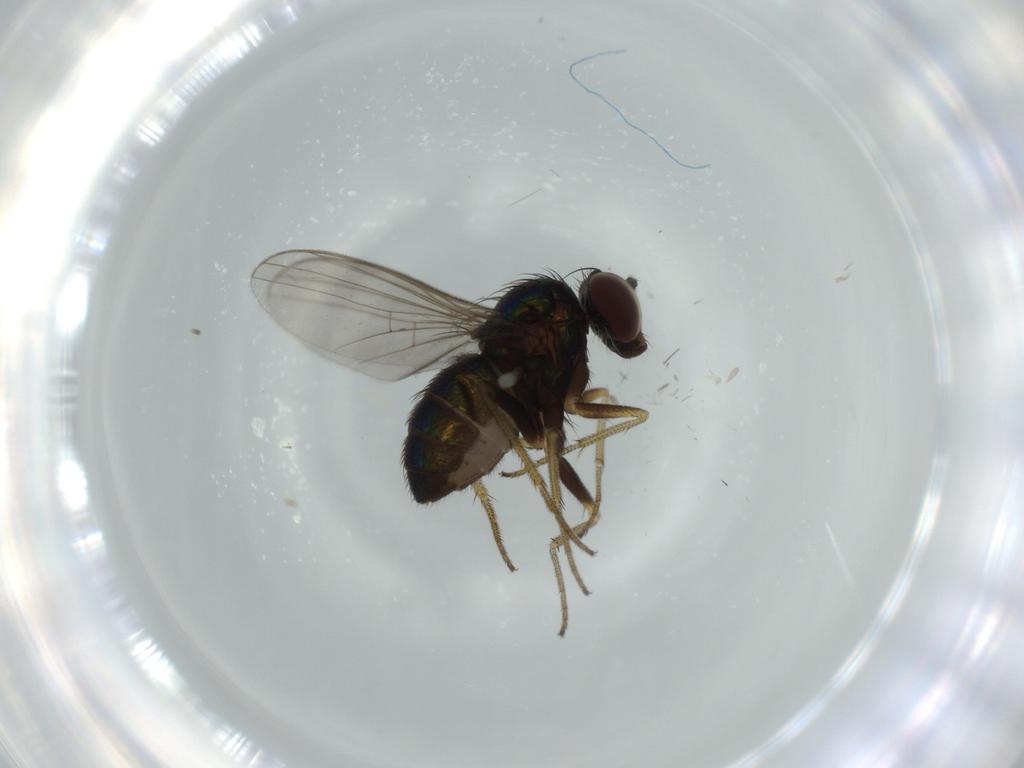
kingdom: Animalia
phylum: Arthropoda
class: Insecta
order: Diptera
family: Dolichopodidae
